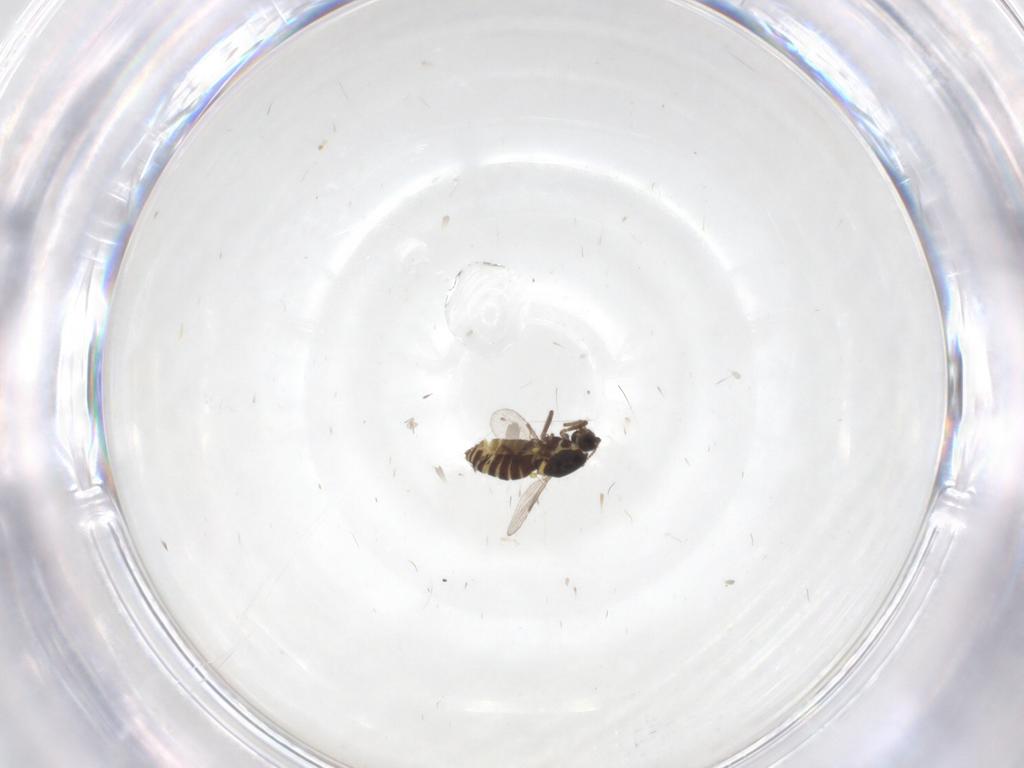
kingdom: Animalia
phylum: Arthropoda
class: Insecta
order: Diptera
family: Ceratopogonidae
